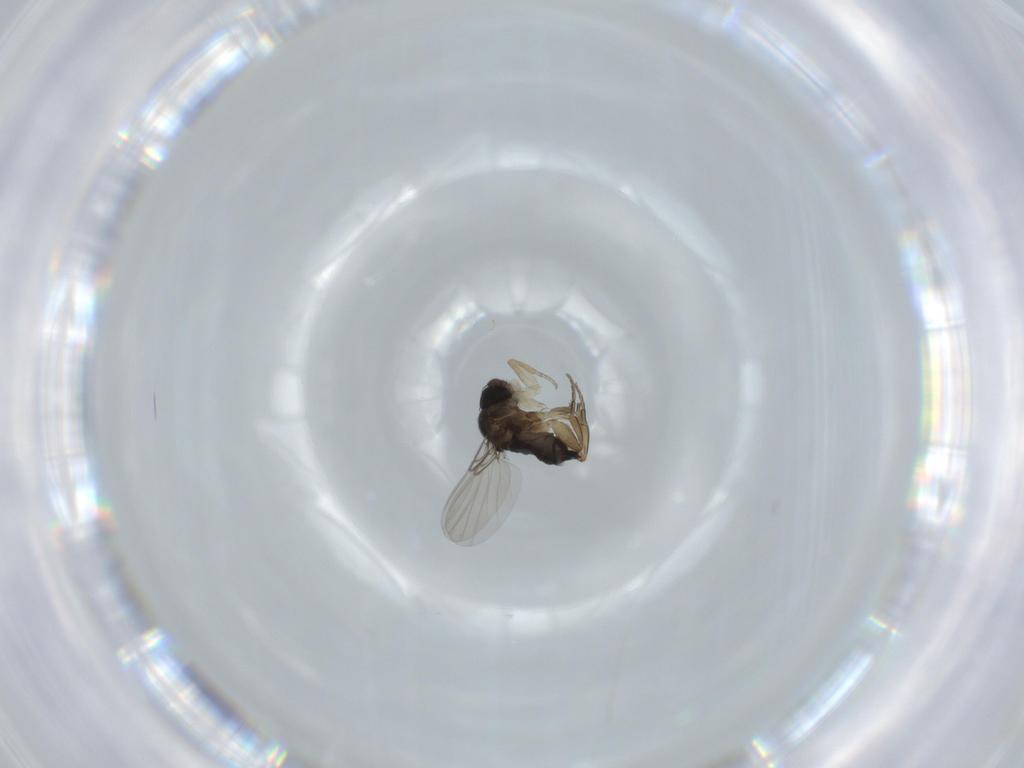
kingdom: Animalia
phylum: Arthropoda
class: Insecta
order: Diptera
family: Phoridae
